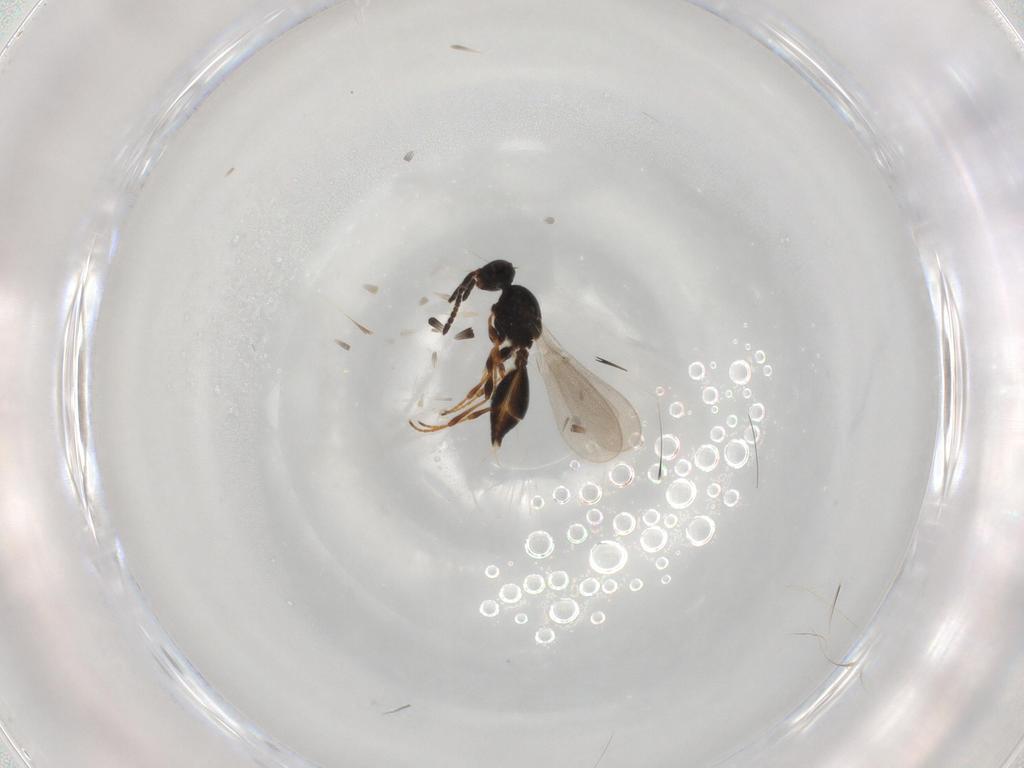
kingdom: Animalia
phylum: Arthropoda
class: Insecta
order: Hymenoptera
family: Platygastridae
